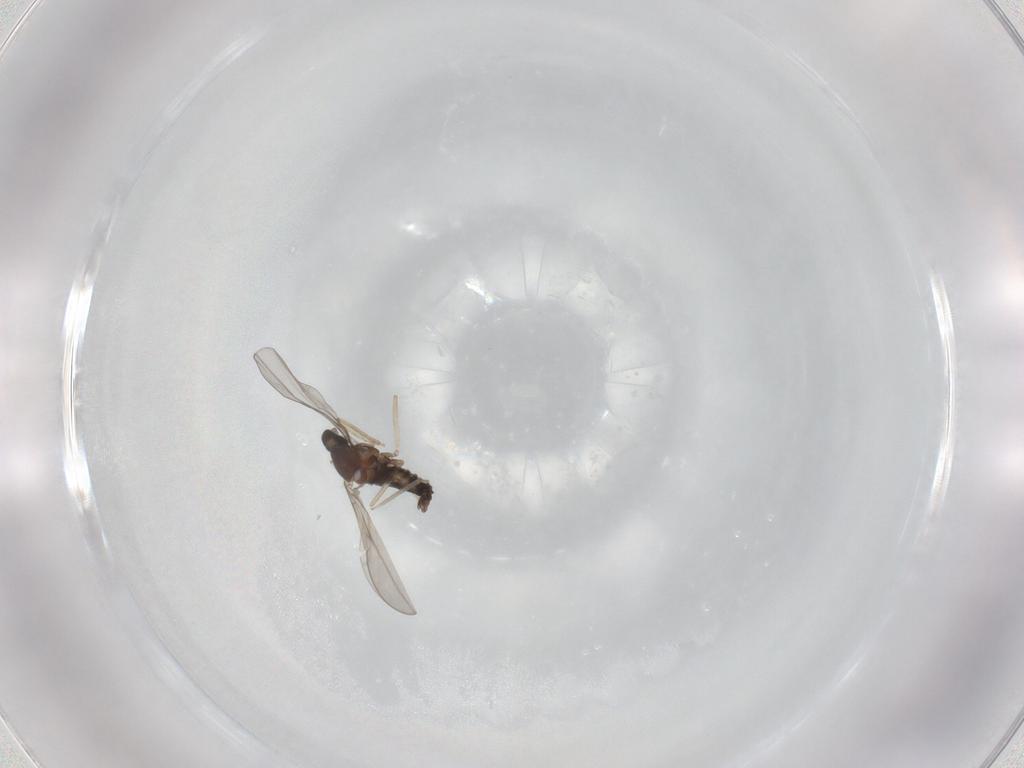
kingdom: Animalia
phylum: Arthropoda
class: Insecta
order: Diptera
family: Cecidomyiidae
